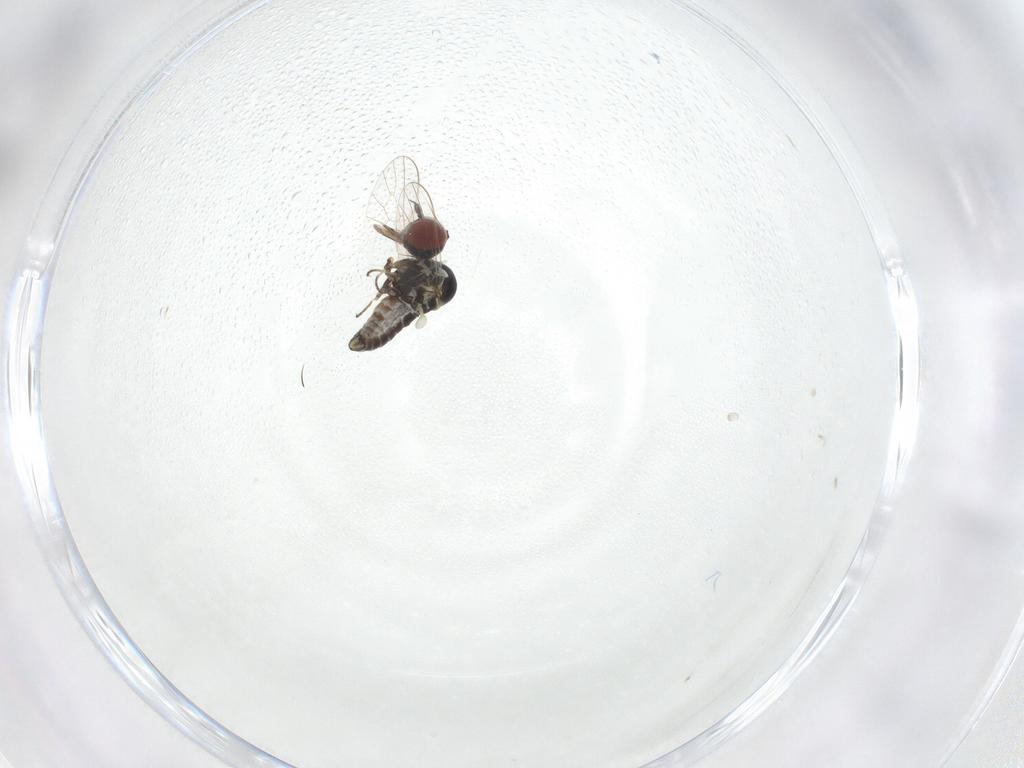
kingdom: Animalia
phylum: Arthropoda
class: Insecta
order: Diptera
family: Bombyliidae
